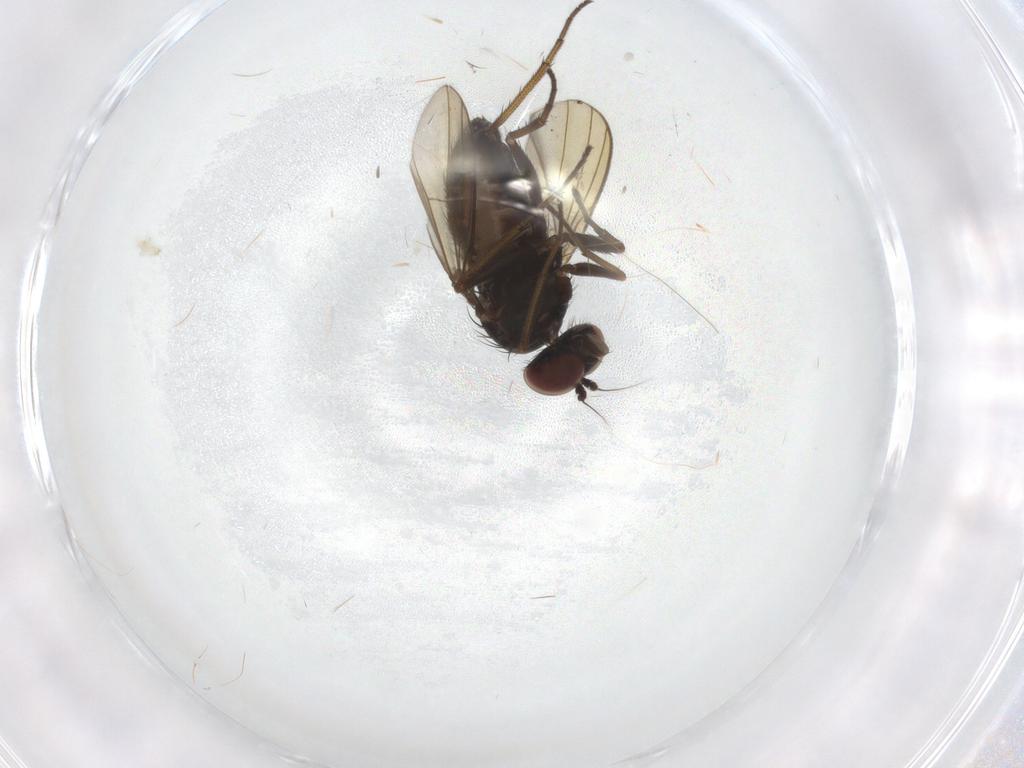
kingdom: Animalia
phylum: Arthropoda
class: Insecta
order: Diptera
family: Dolichopodidae
